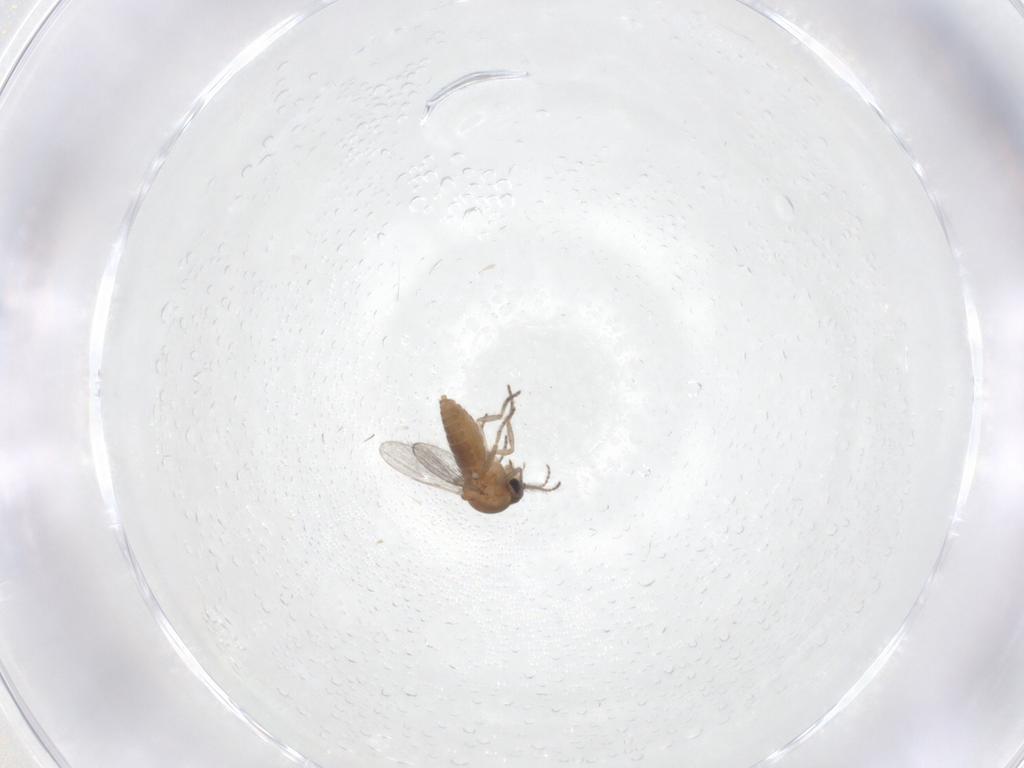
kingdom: Animalia
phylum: Arthropoda
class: Insecta
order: Diptera
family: Ceratopogonidae
